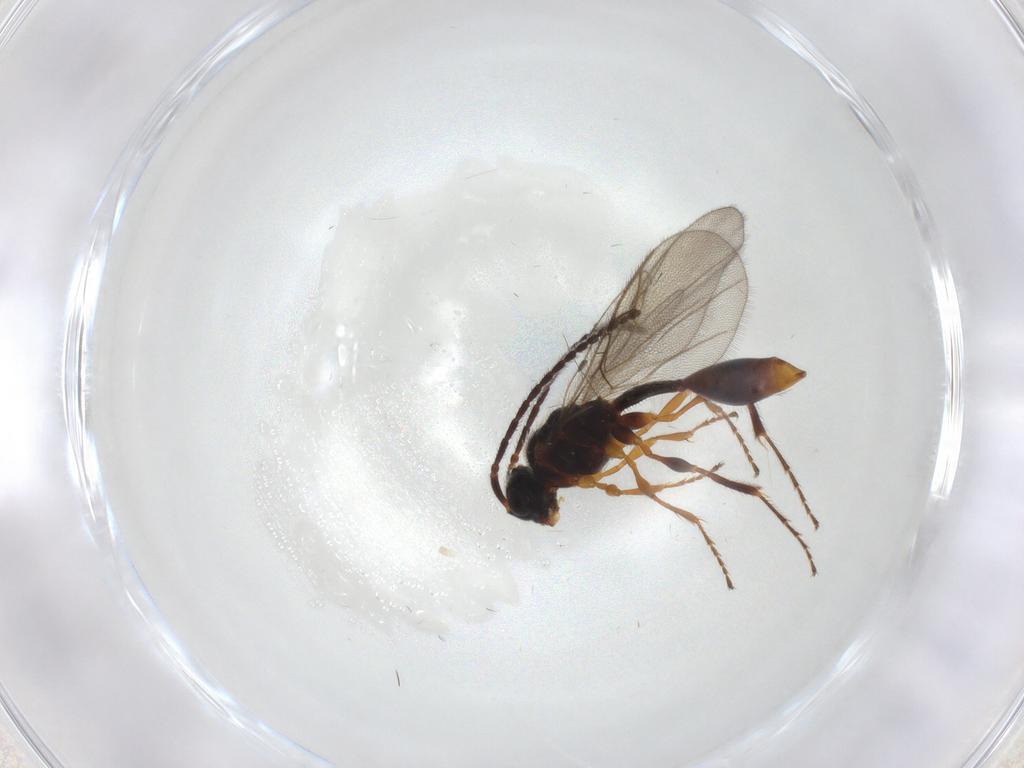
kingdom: Animalia
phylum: Arthropoda
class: Insecta
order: Hymenoptera
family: Diapriidae
